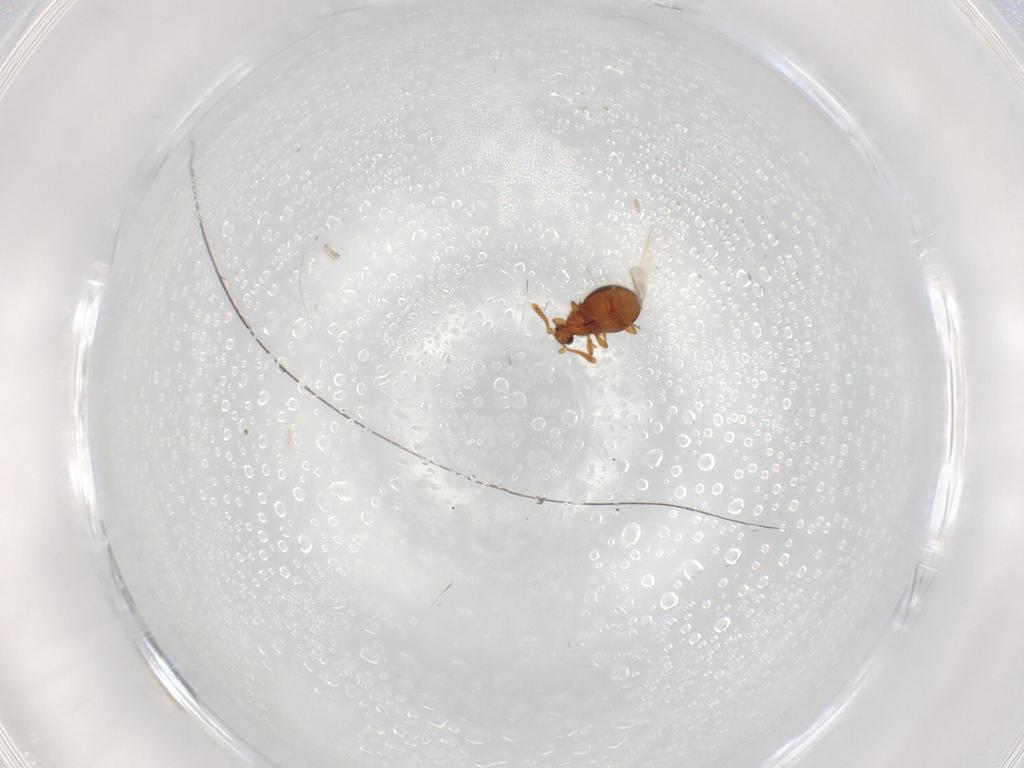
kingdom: Animalia
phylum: Arthropoda
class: Insecta
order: Coleoptera
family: Staphylinidae
